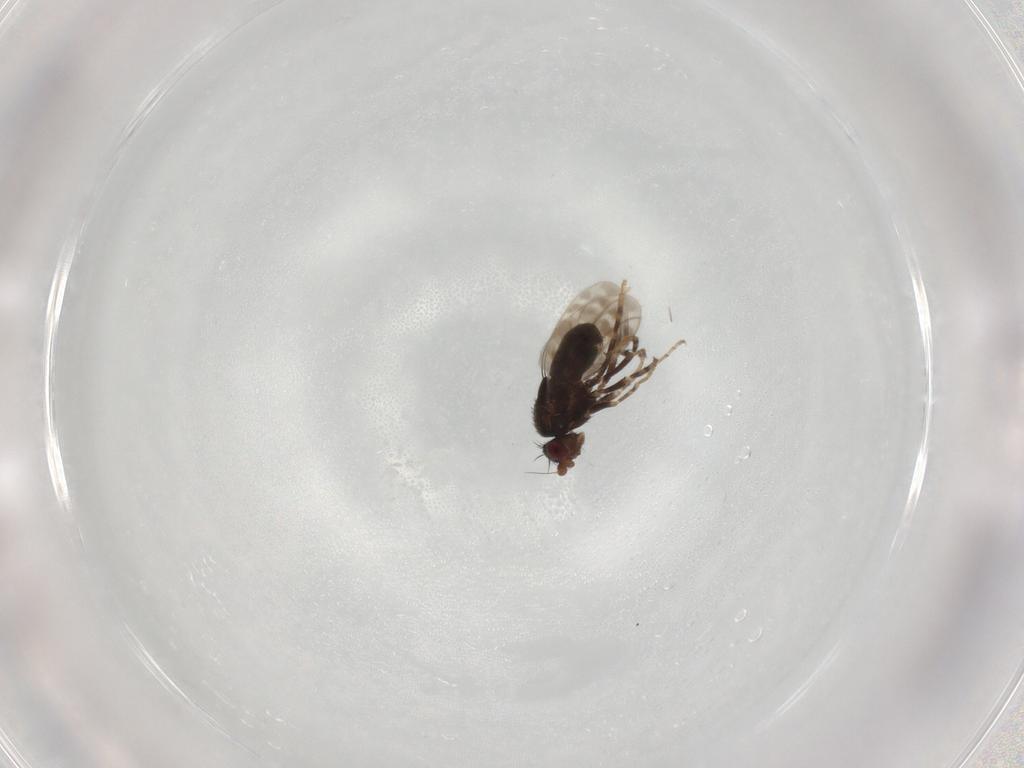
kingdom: Animalia
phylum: Arthropoda
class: Insecta
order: Diptera
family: Sphaeroceridae
